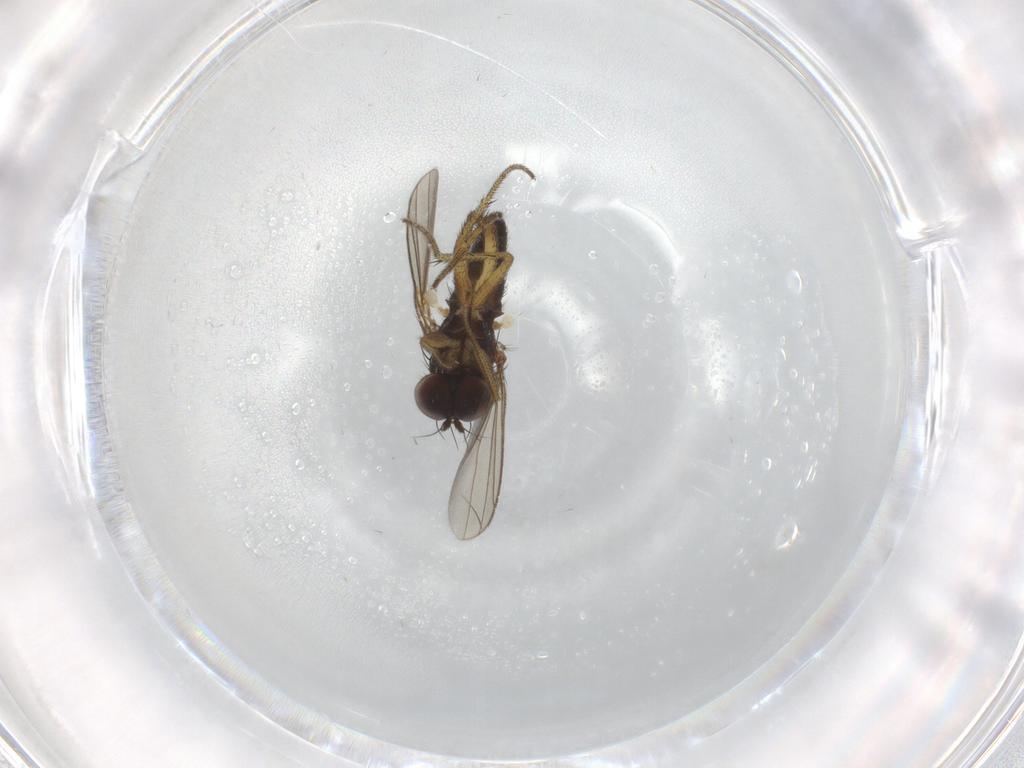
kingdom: Animalia
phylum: Arthropoda
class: Insecta
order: Diptera
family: Dolichopodidae
